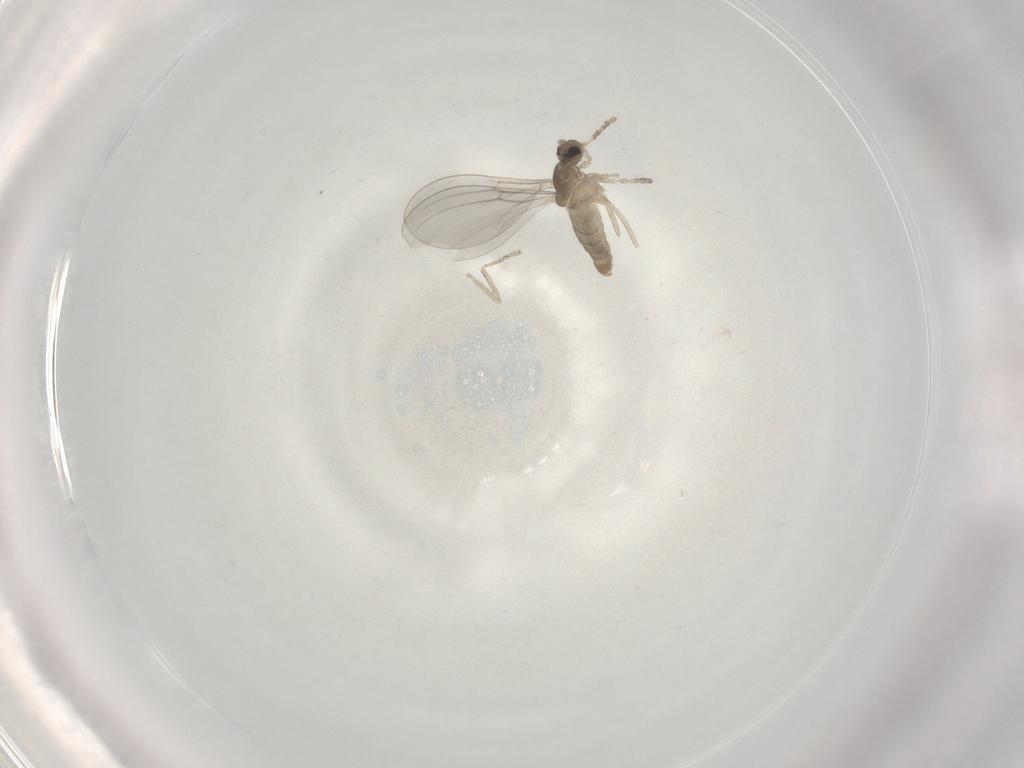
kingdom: Animalia
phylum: Arthropoda
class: Insecta
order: Diptera
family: Cecidomyiidae
